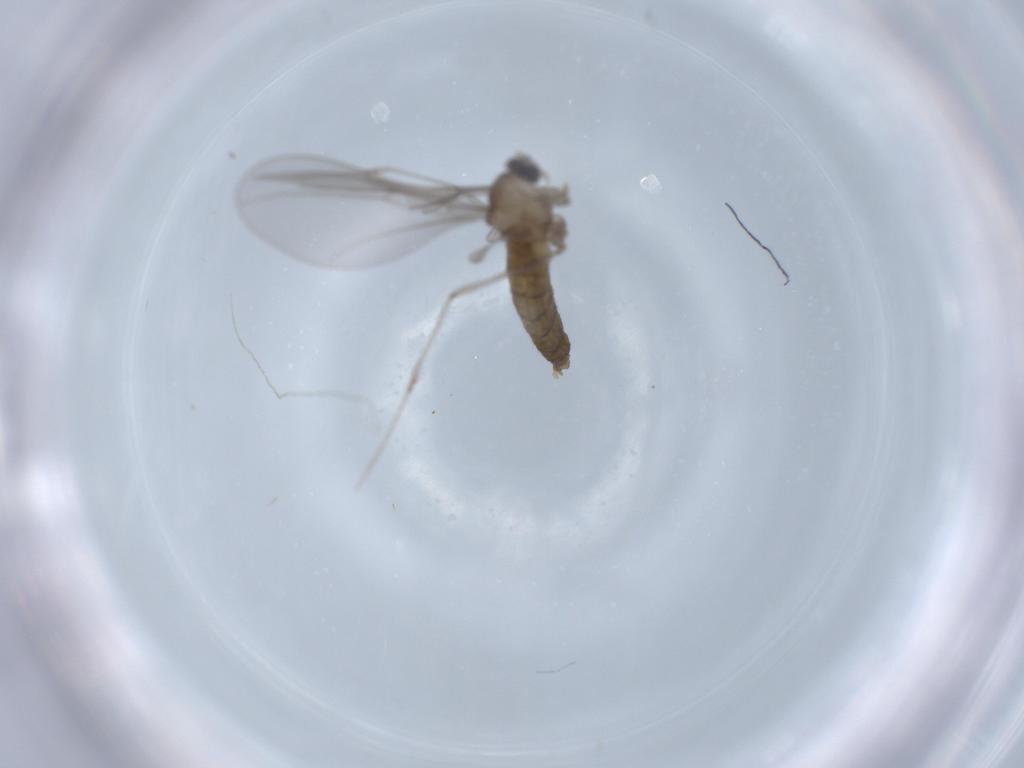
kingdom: Animalia
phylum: Arthropoda
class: Insecta
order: Diptera
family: Cecidomyiidae
